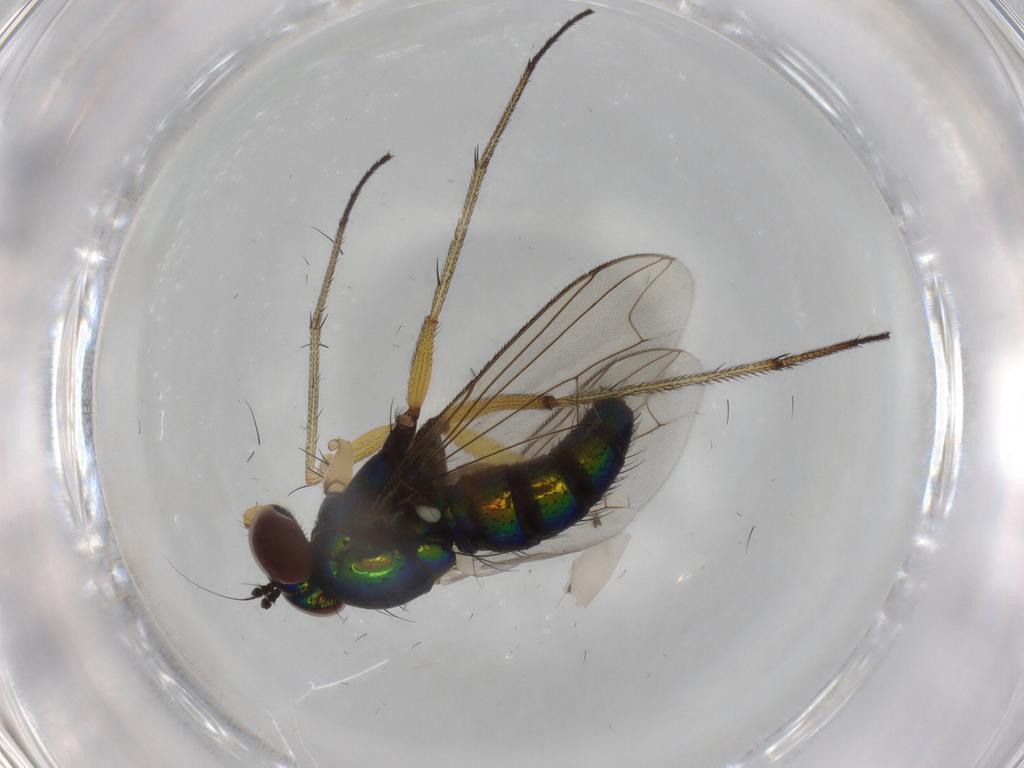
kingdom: Animalia
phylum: Arthropoda
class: Insecta
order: Diptera
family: Dolichopodidae
